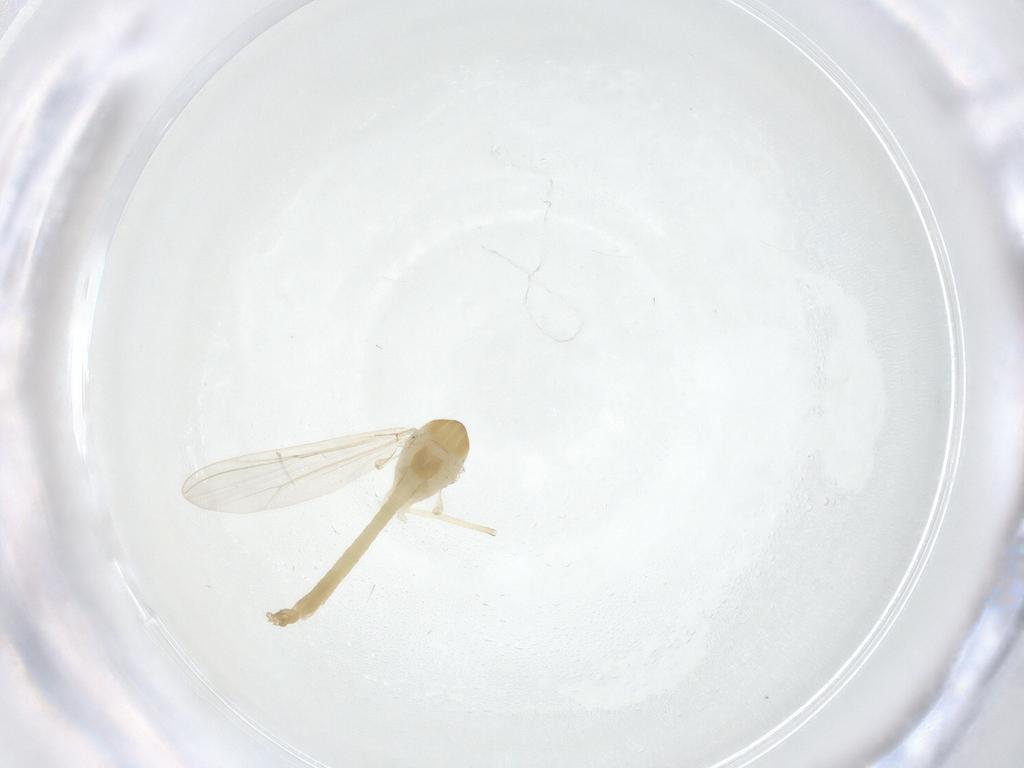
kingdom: Animalia
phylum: Arthropoda
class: Insecta
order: Diptera
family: Chironomidae
